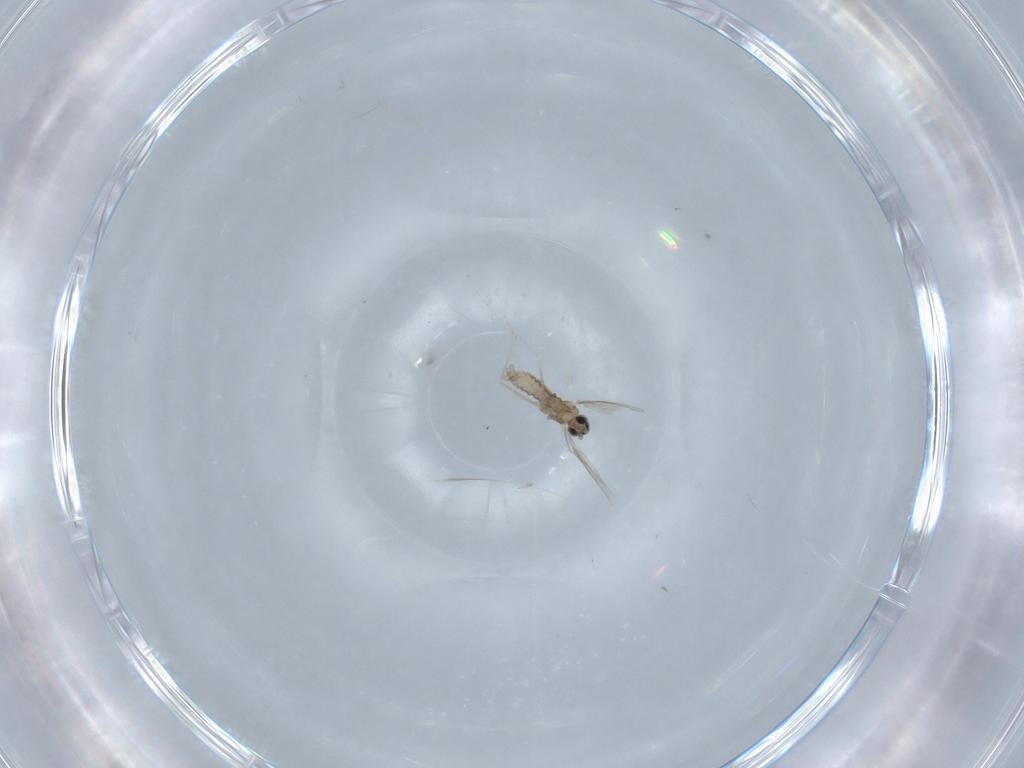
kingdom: Animalia
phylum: Arthropoda
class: Insecta
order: Diptera
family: Cecidomyiidae
